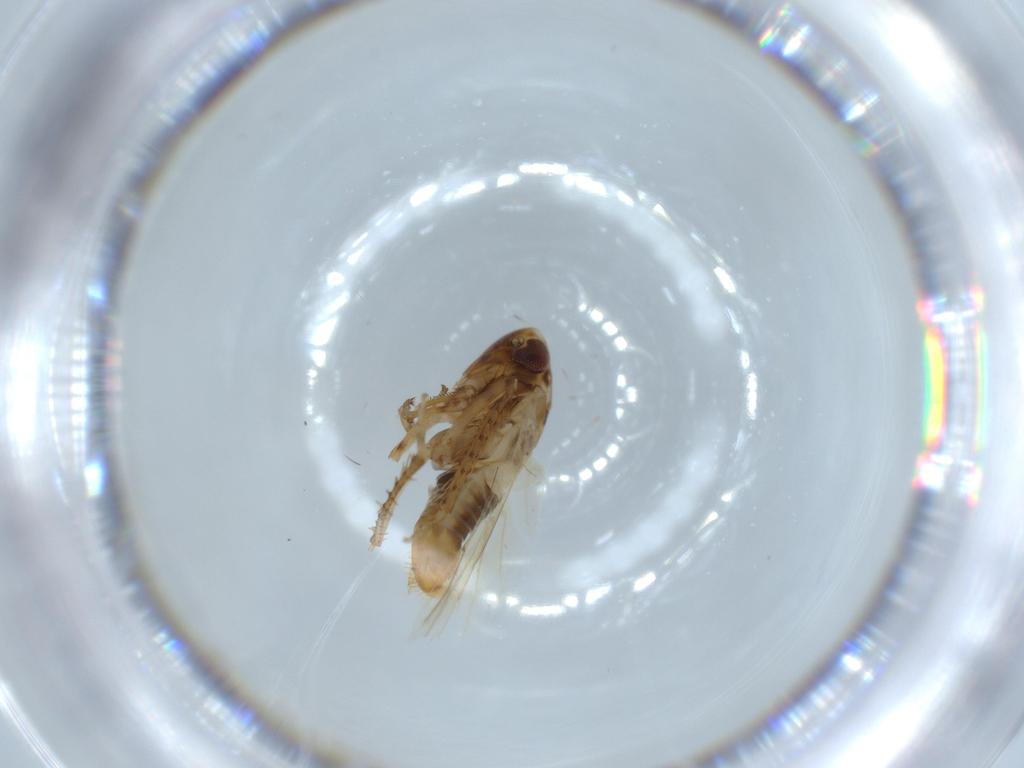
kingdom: Animalia
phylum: Arthropoda
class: Insecta
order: Hemiptera
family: Cicadellidae
